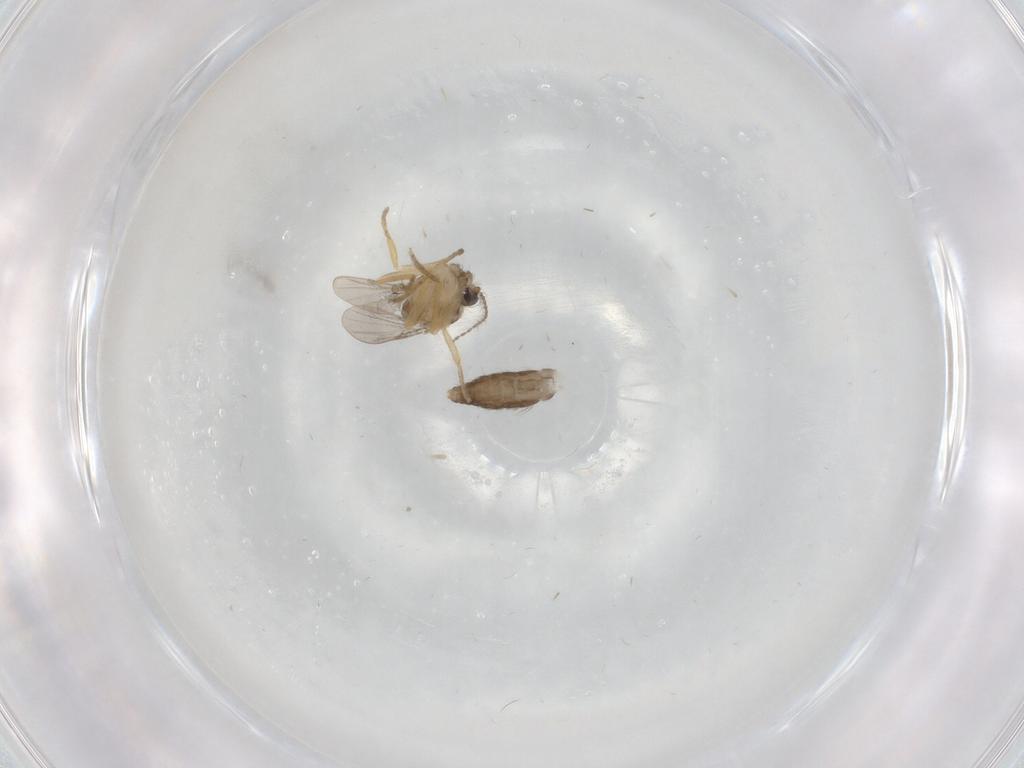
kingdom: Animalia
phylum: Arthropoda
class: Insecta
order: Diptera
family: Ceratopogonidae
